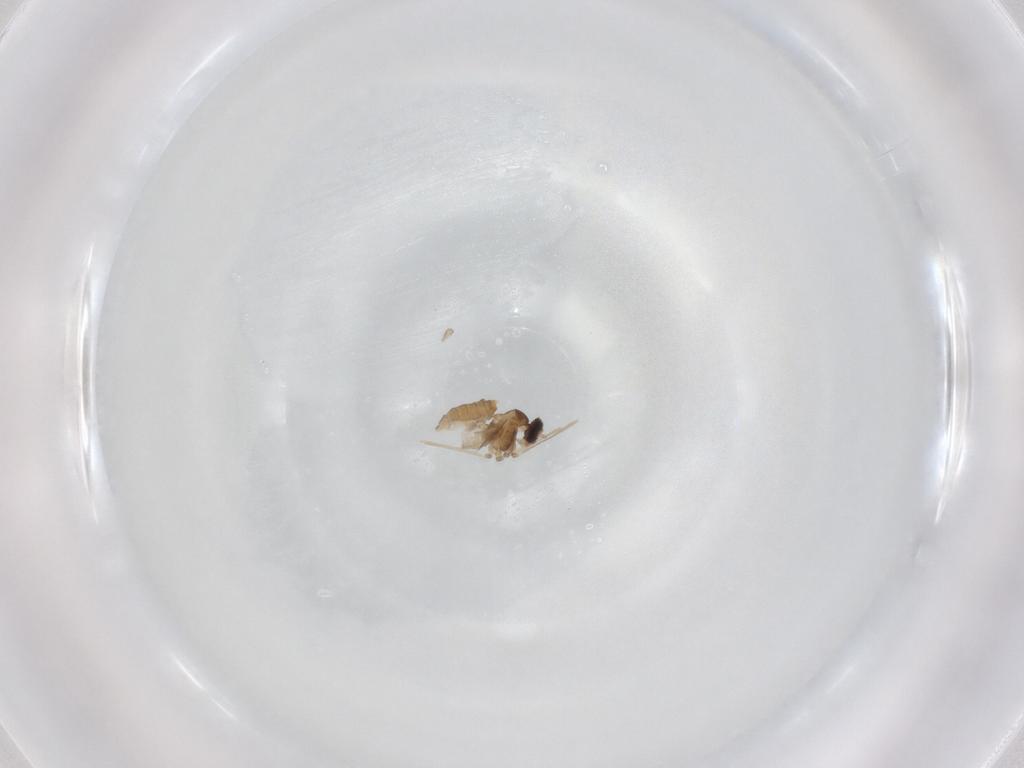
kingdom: Animalia
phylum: Arthropoda
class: Insecta
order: Diptera
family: Cecidomyiidae
